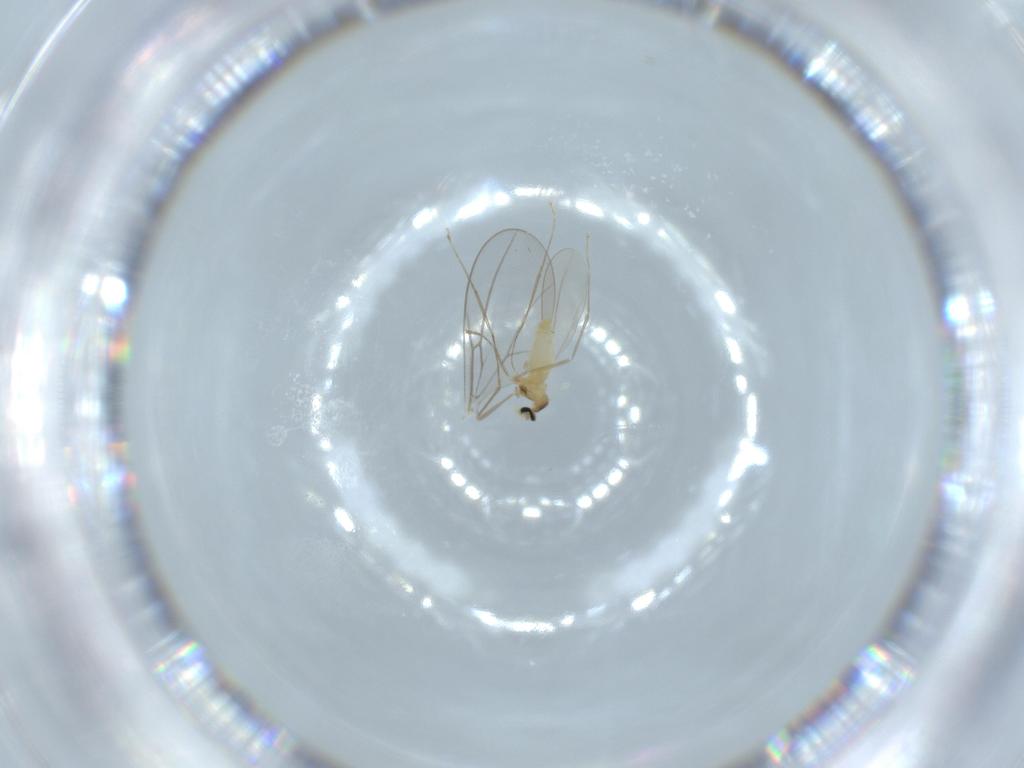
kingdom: Animalia
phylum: Arthropoda
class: Insecta
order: Diptera
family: Cecidomyiidae
